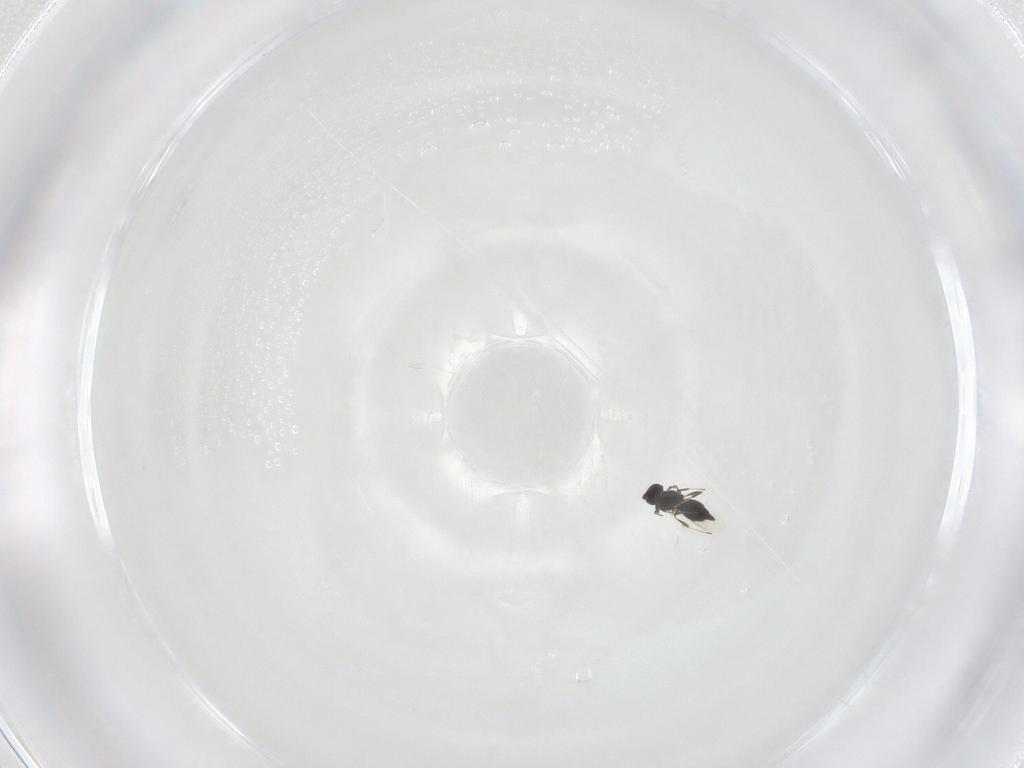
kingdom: Animalia
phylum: Arthropoda
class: Insecta
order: Hymenoptera
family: Scelionidae
